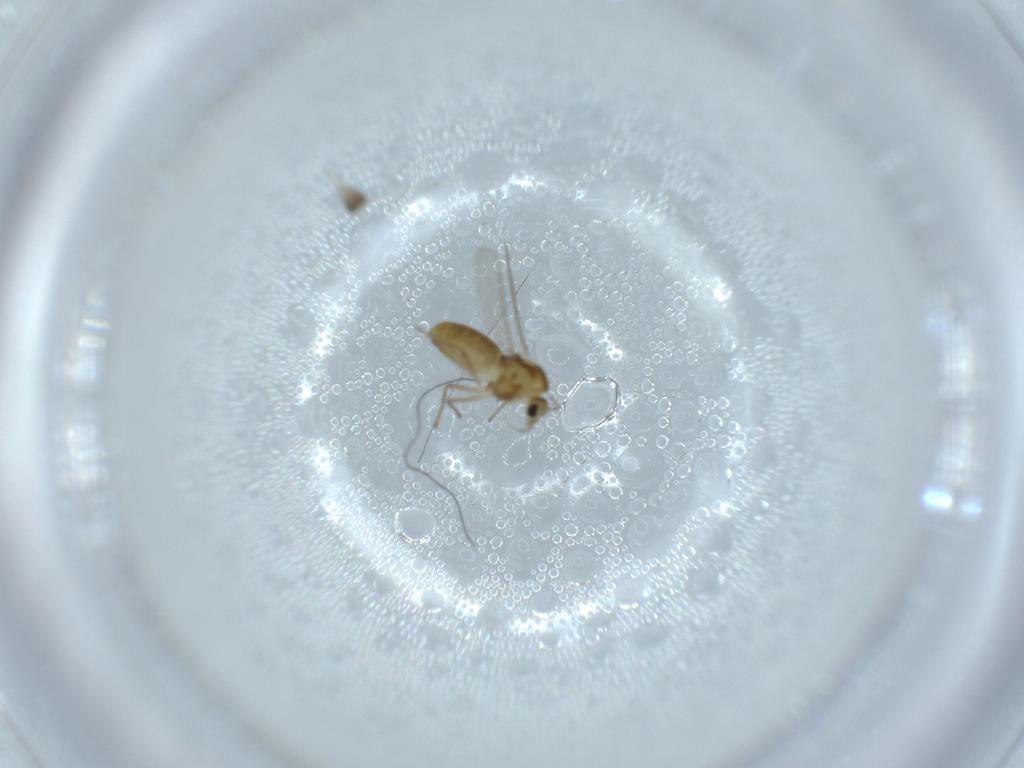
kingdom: Animalia
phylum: Arthropoda
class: Insecta
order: Diptera
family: Chironomidae
